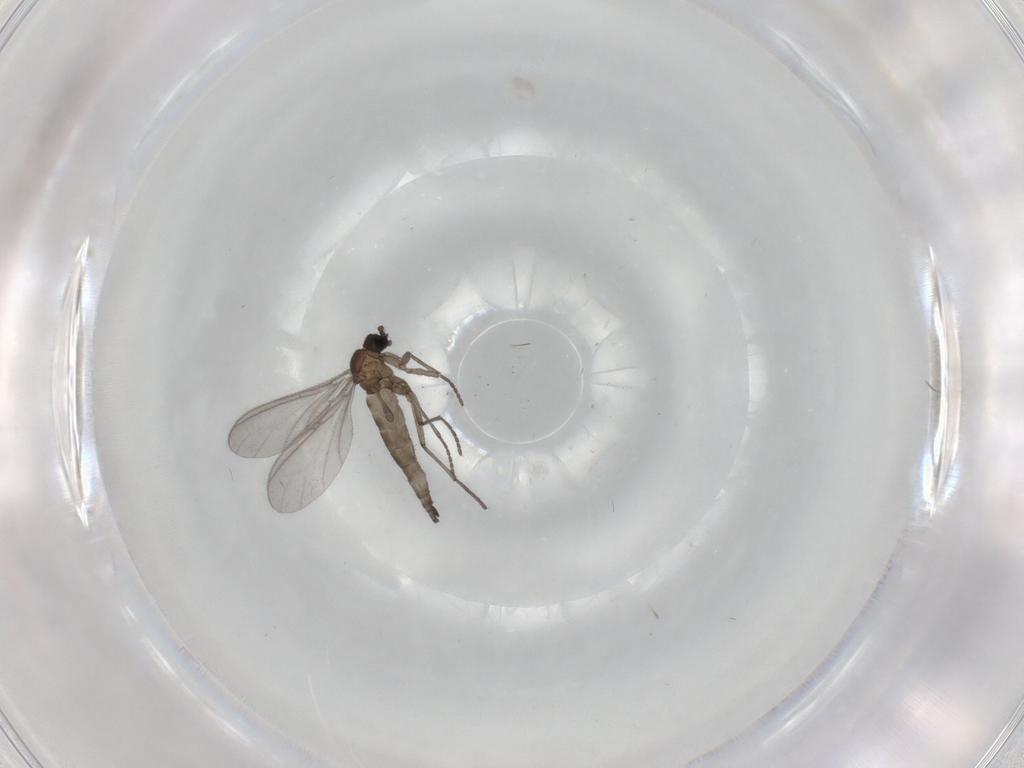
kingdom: Animalia
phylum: Arthropoda
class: Insecta
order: Diptera
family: Sciaridae
